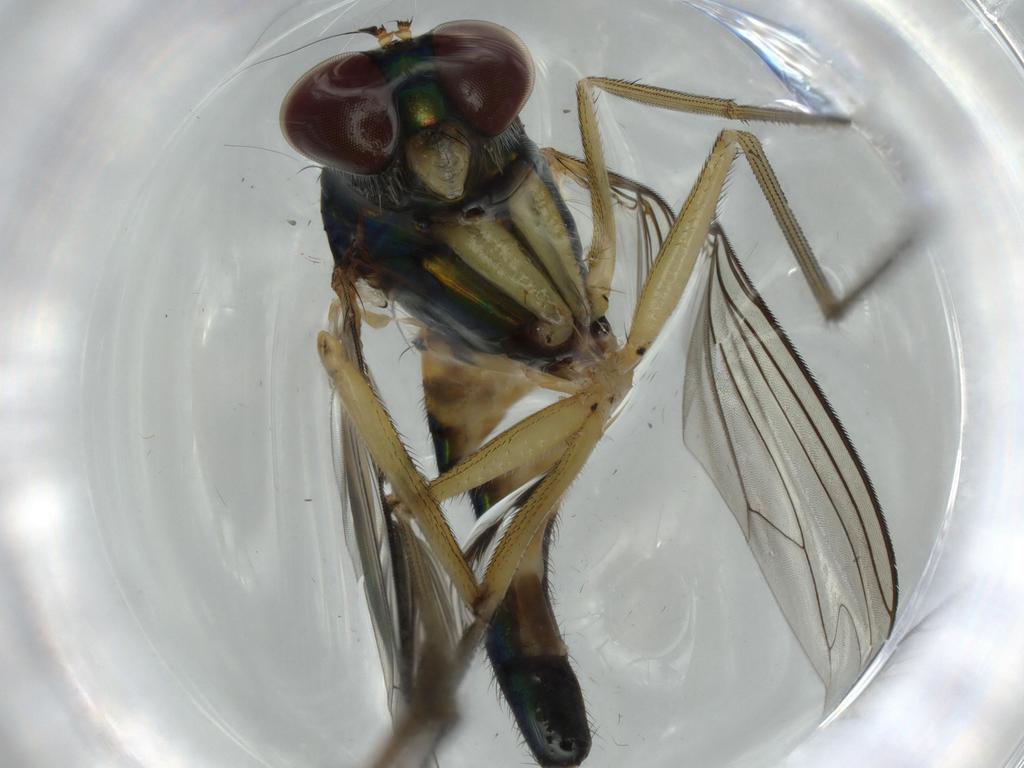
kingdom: Animalia
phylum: Arthropoda
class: Insecta
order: Diptera
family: Dolichopodidae
